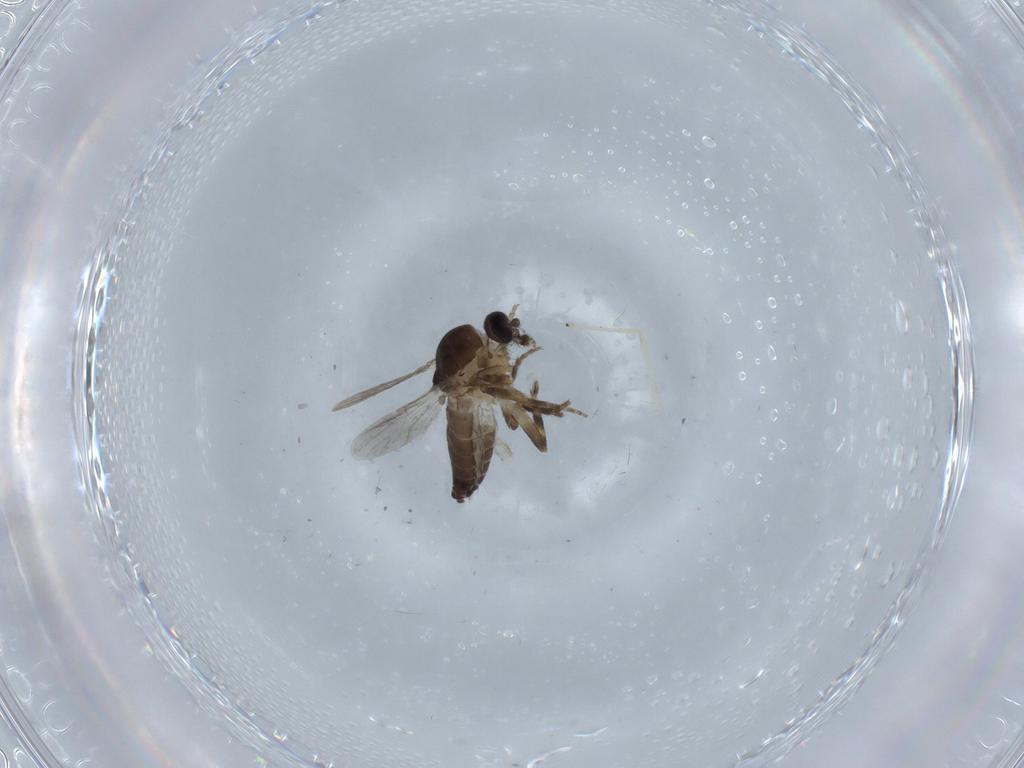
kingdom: Animalia
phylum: Arthropoda
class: Insecta
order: Diptera
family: Ceratopogonidae
